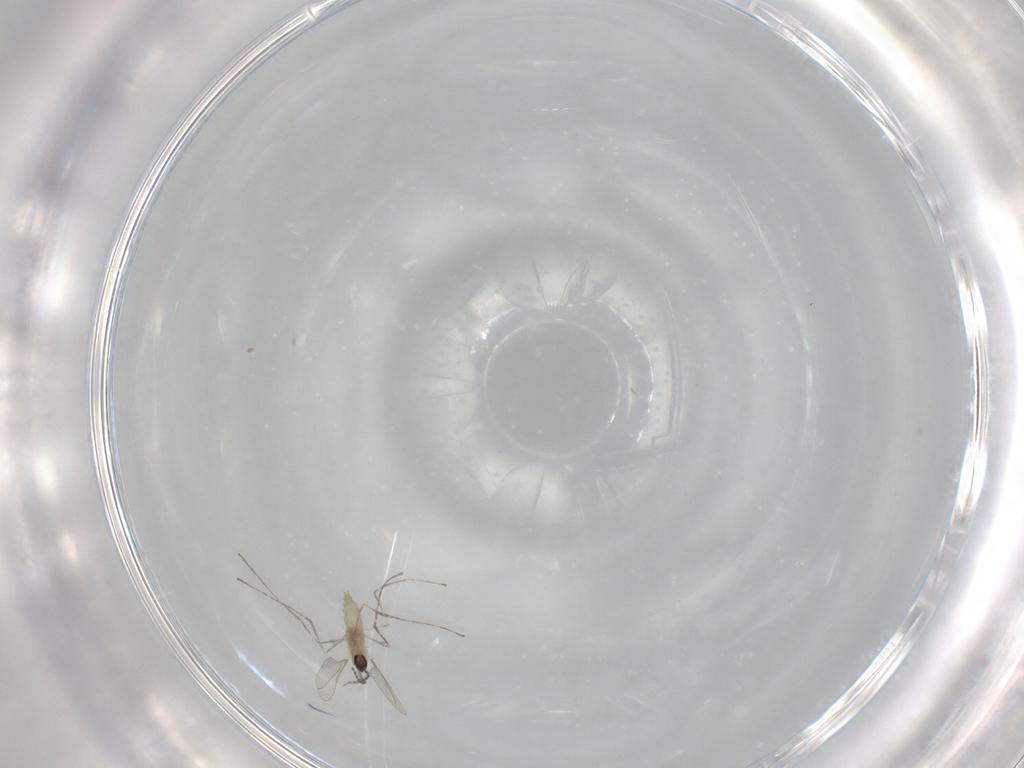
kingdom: Animalia
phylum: Arthropoda
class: Insecta
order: Diptera
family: Cecidomyiidae
